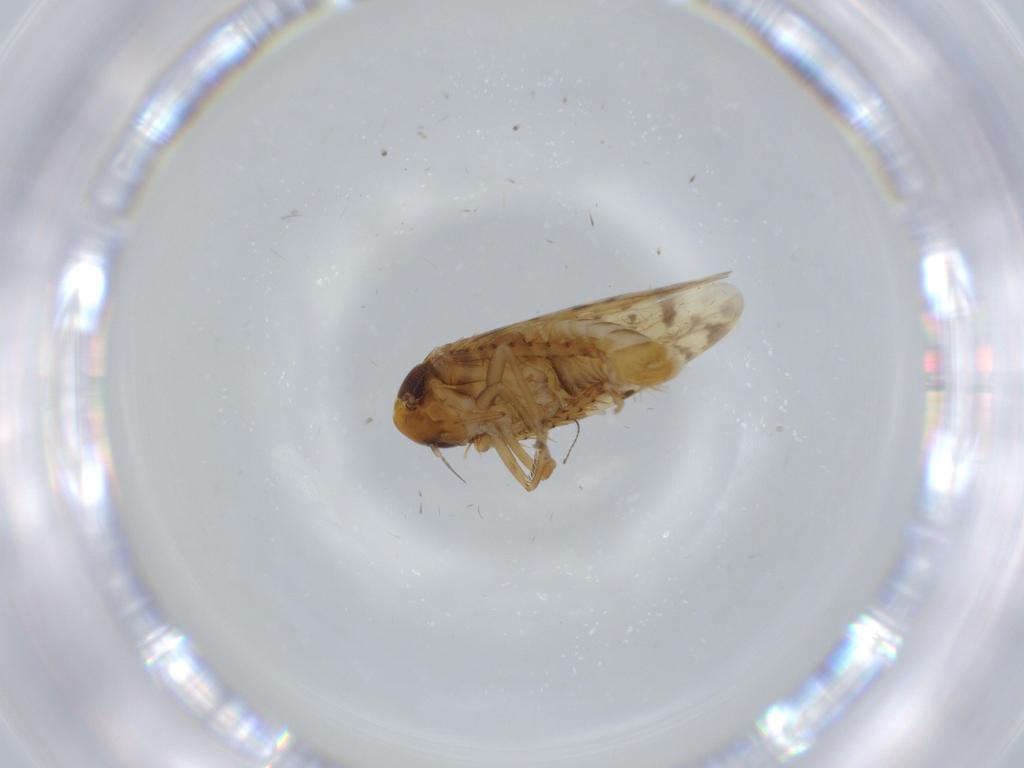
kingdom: Animalia
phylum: Arthropoda
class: Insecta
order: Hemiptera
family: Cicadellidae
